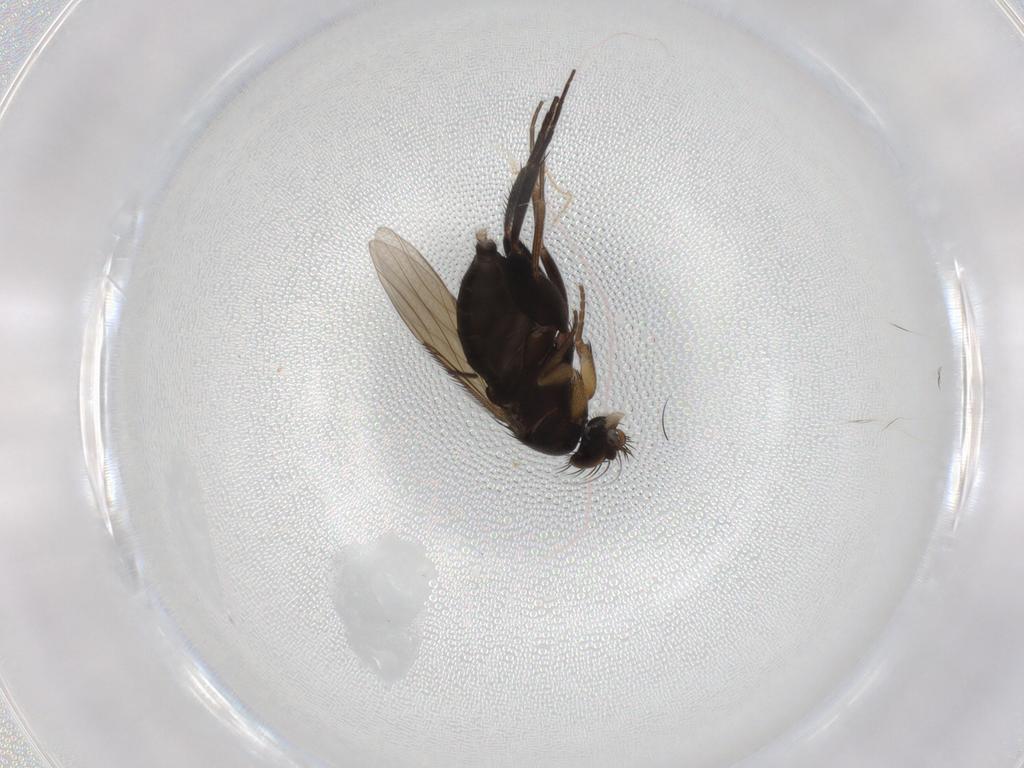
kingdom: Animalia
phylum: Arthropoda
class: Insecta
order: Diptera
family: Phoridae
